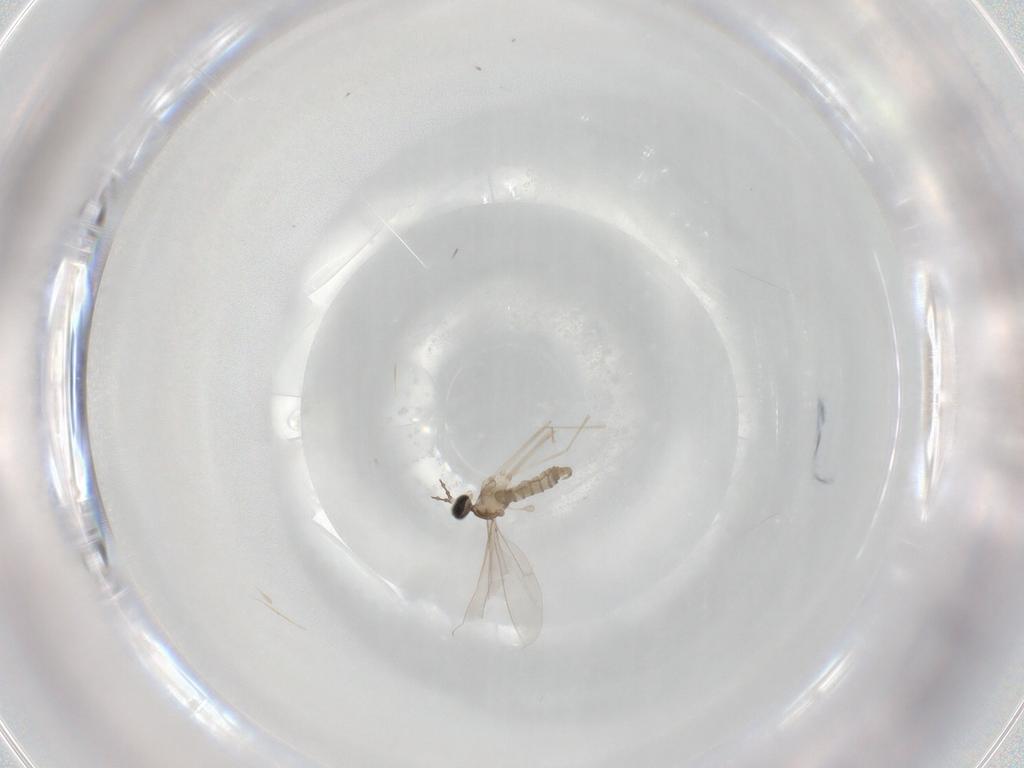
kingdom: Animalia
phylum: Arthropoda
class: Insecta
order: Diptera
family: Cecidomyiidae
